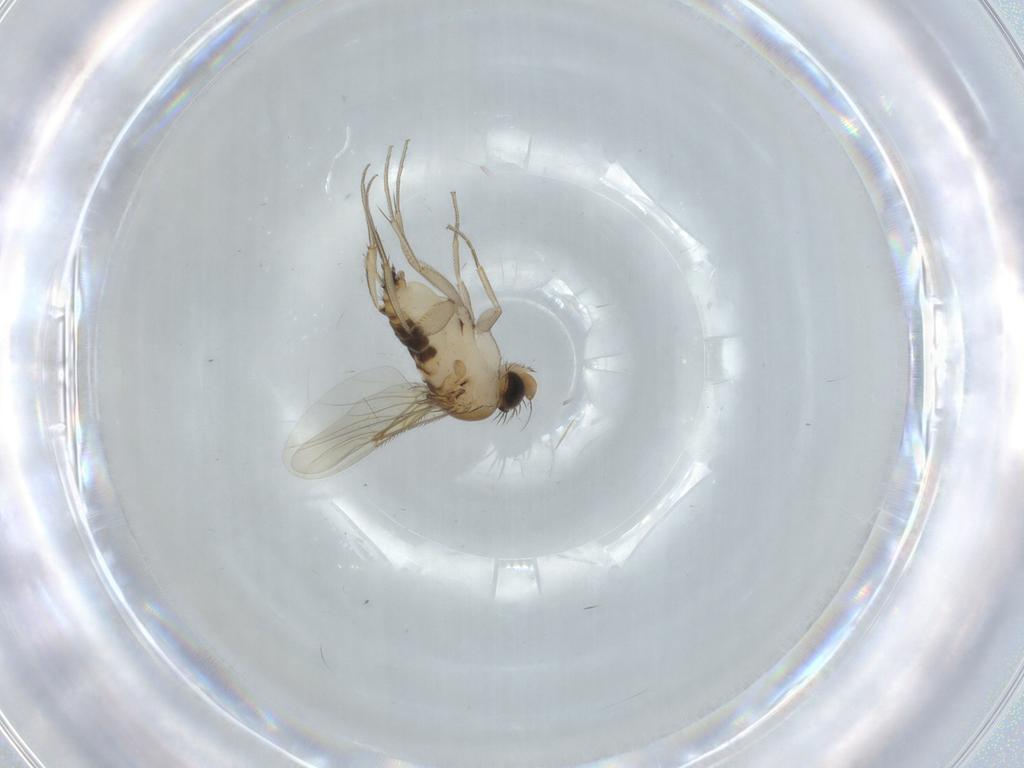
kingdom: Animalia
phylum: Arthropoda
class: Insecta
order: Diptera
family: Phoridae
